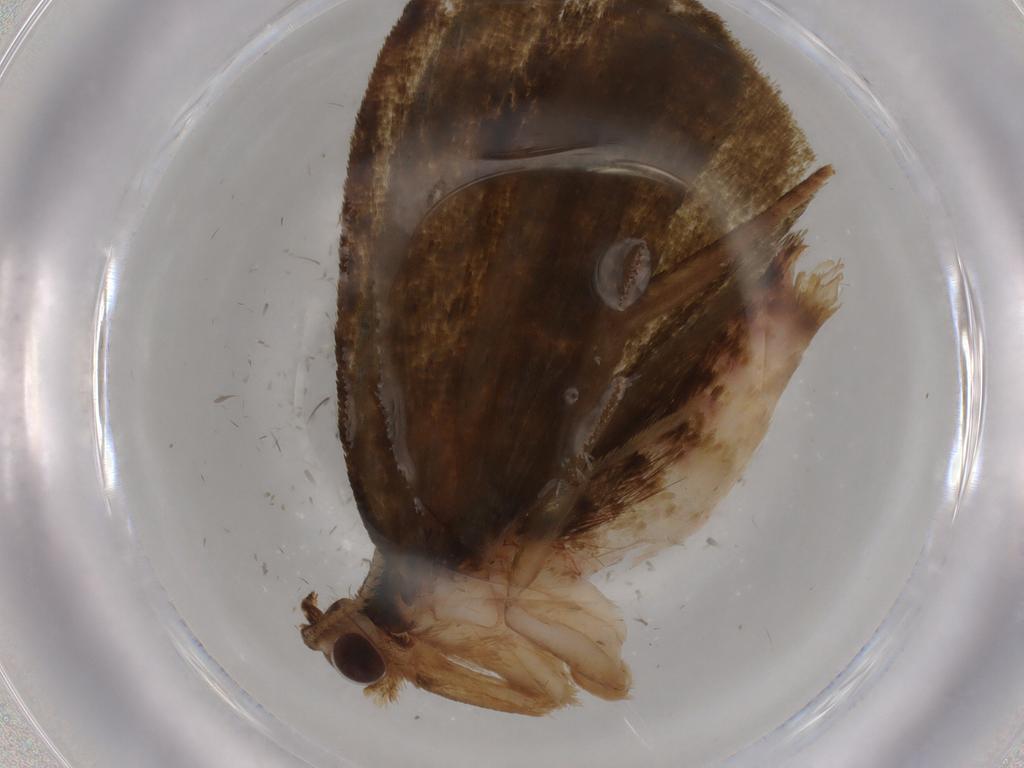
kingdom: Animalia
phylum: Arthropoda
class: Insecta
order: Lepidoptera
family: Geometridae
